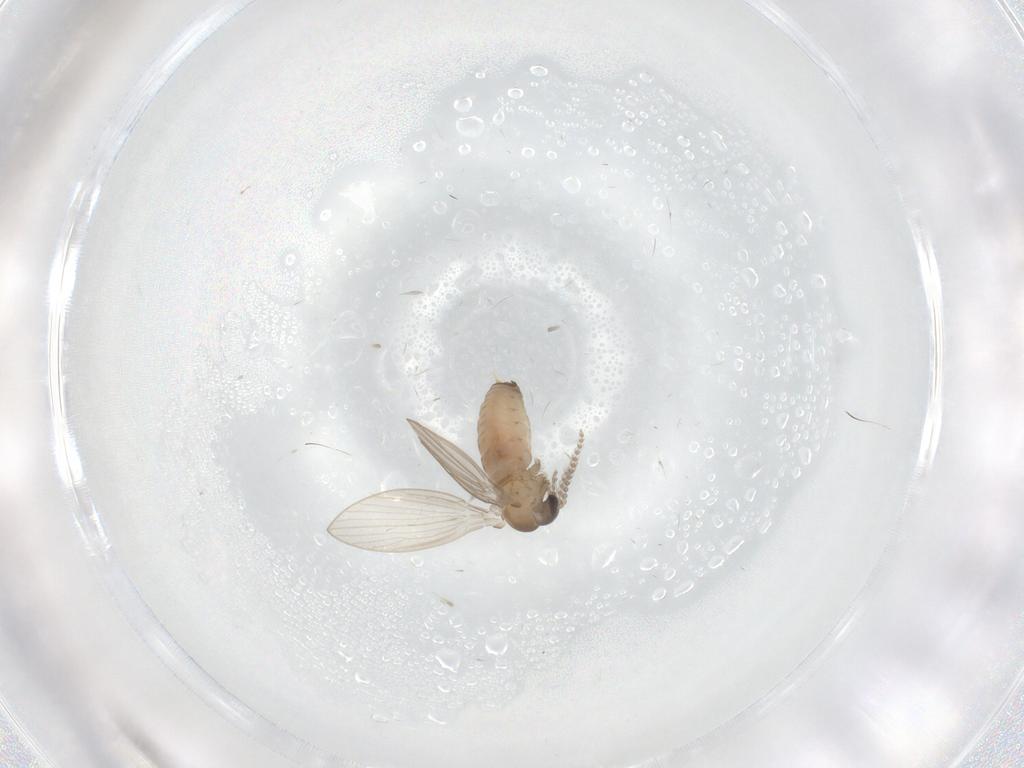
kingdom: Animalia
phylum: Arthropoda
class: Insecta
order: Diptera
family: Psychodidae
